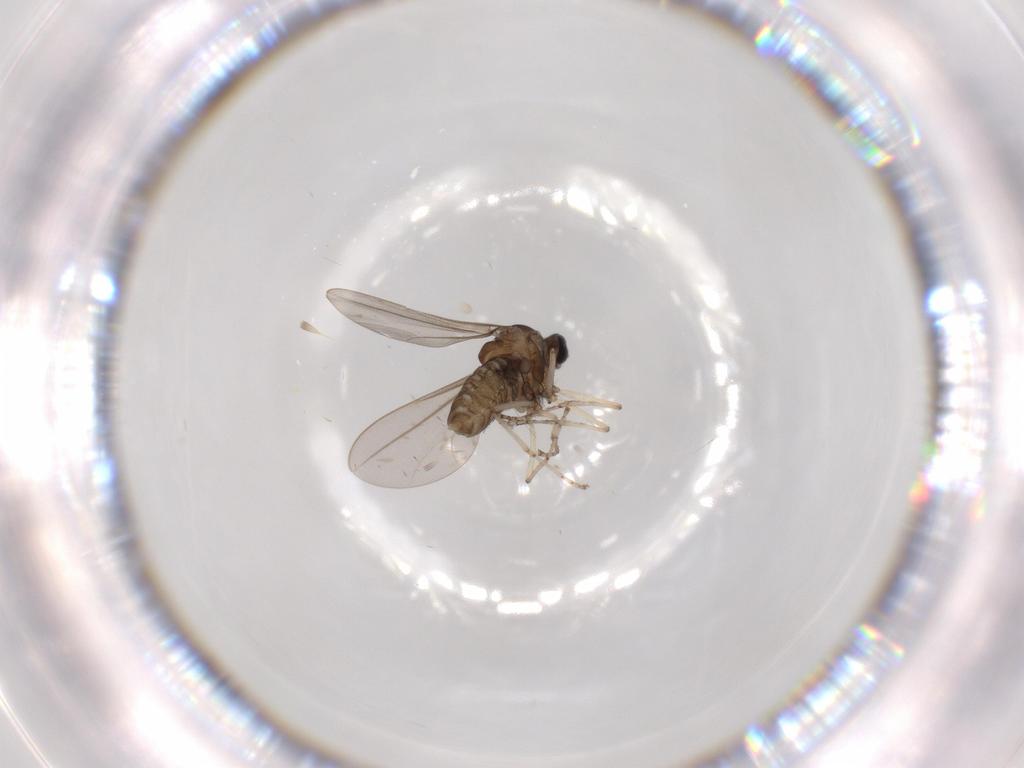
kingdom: Animalia
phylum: Arthropoda
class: Insecta
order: Diptera
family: Cecidomyiidae
